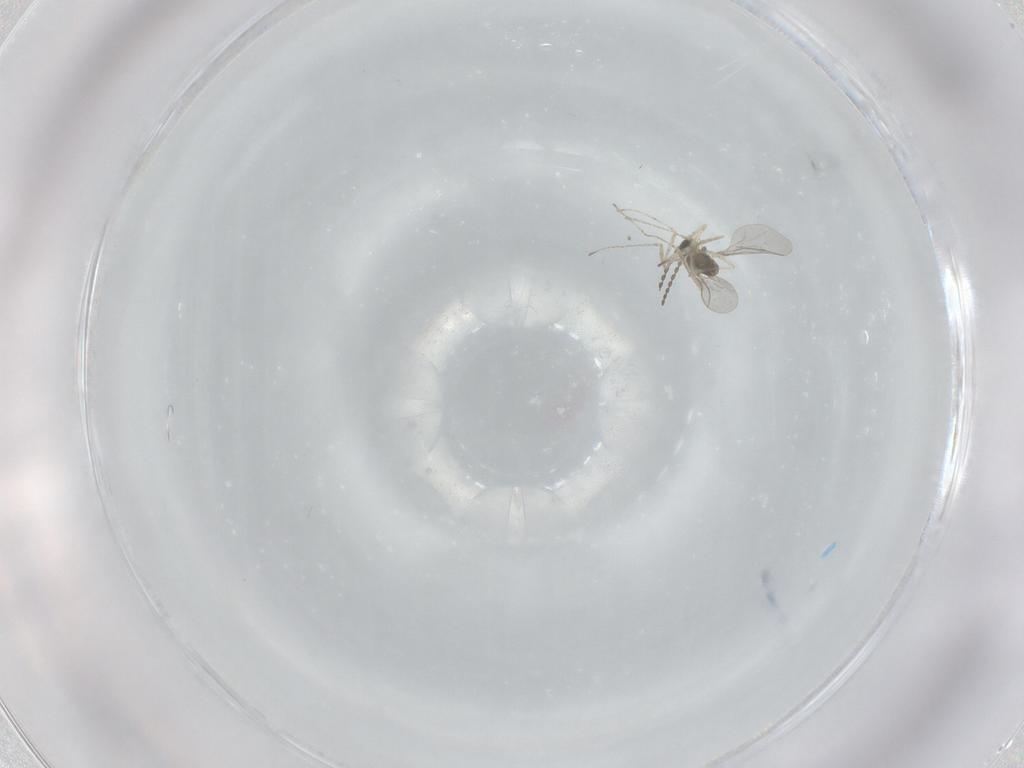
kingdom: Animalia
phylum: Arthropoda
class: Insecta
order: Diptera
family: Cecidomyiidae
